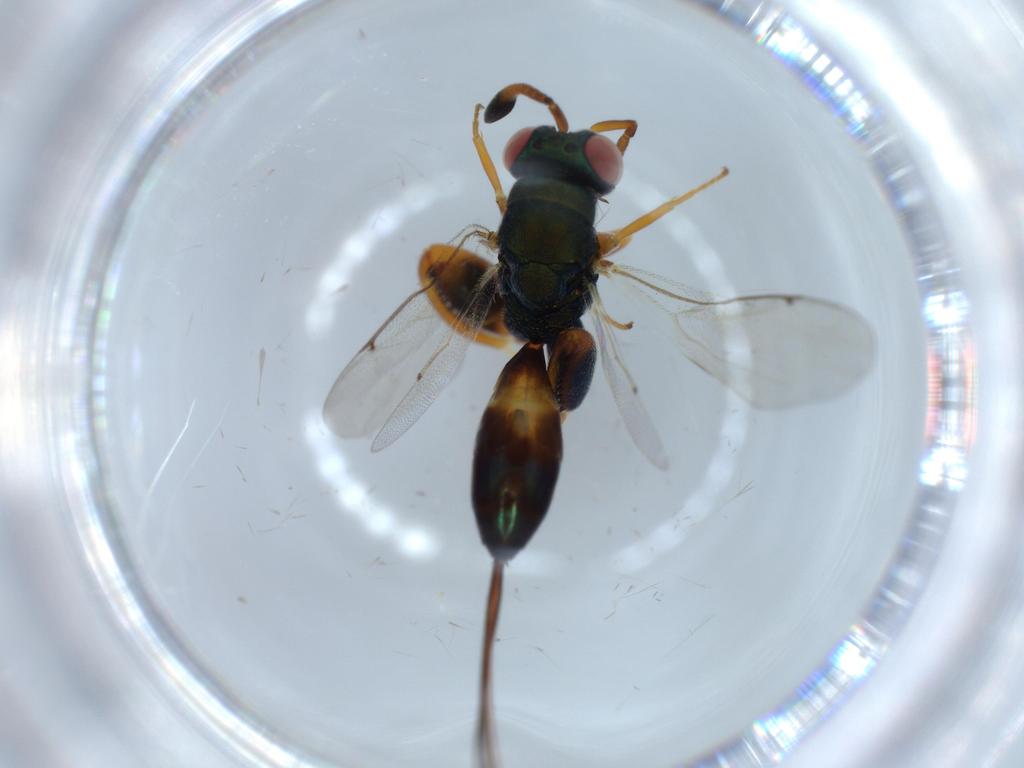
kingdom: Animalia
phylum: Arthropoda
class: Insecta
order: Hymenoptera
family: Torymidae
